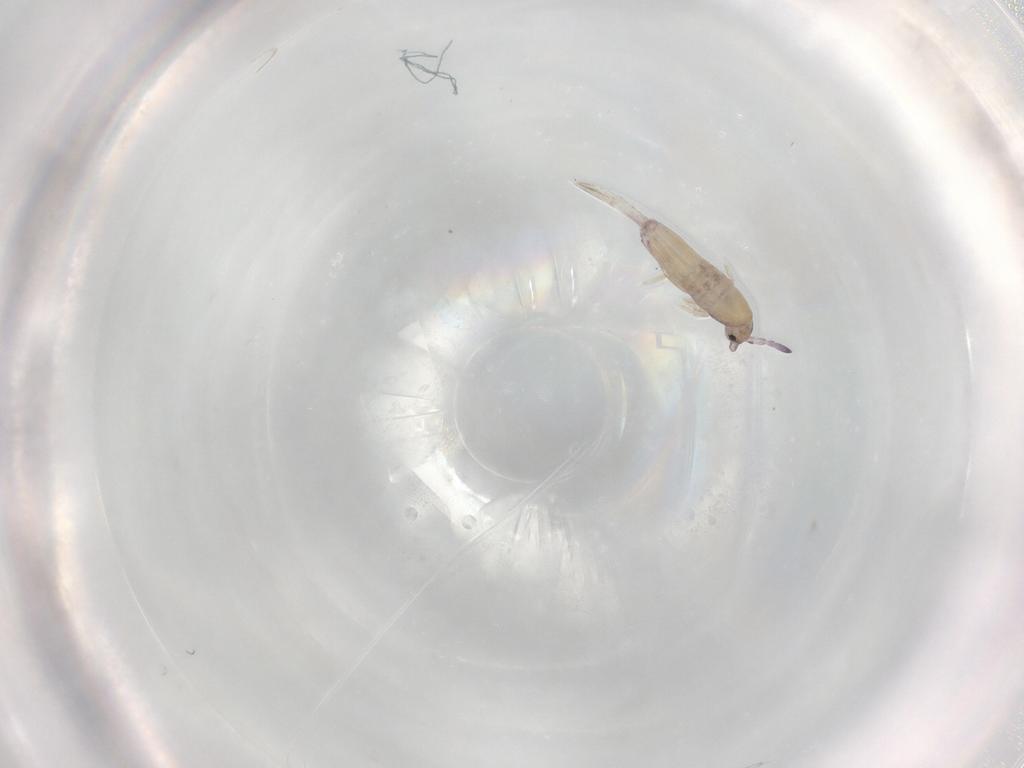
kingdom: Animalia
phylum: Arthropoda
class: Collembola
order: Entomobryomorpha
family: Entomobryidae
